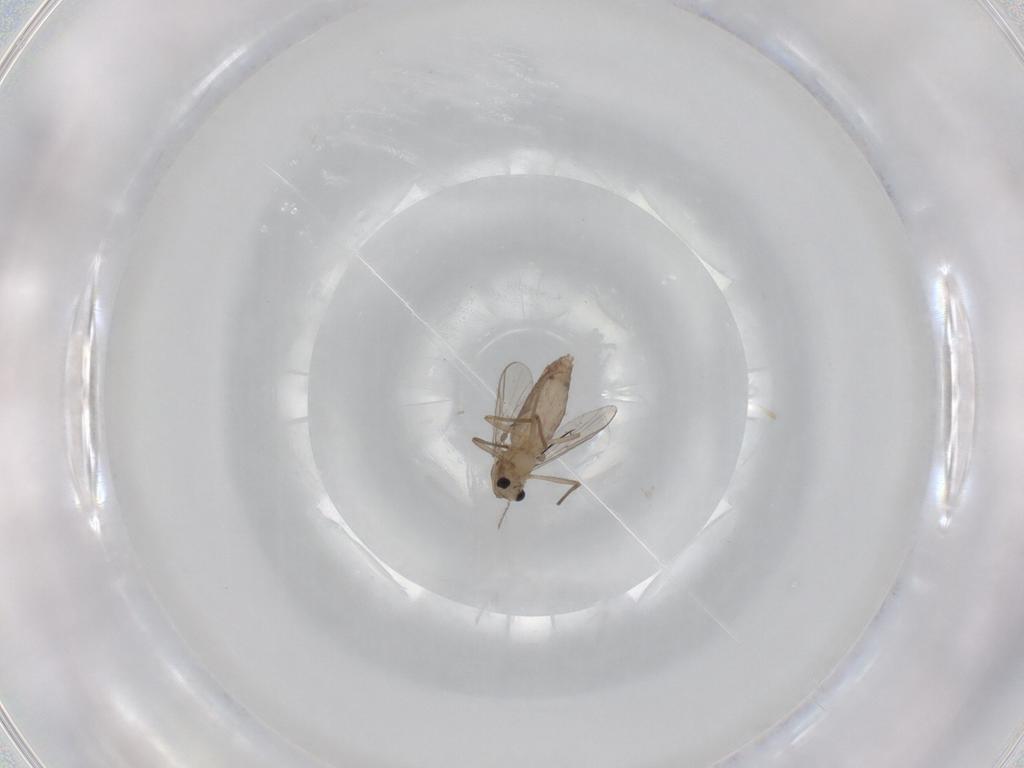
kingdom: Animalia
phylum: Arthropoda
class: Insecta
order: Diptera
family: Chironomidae
